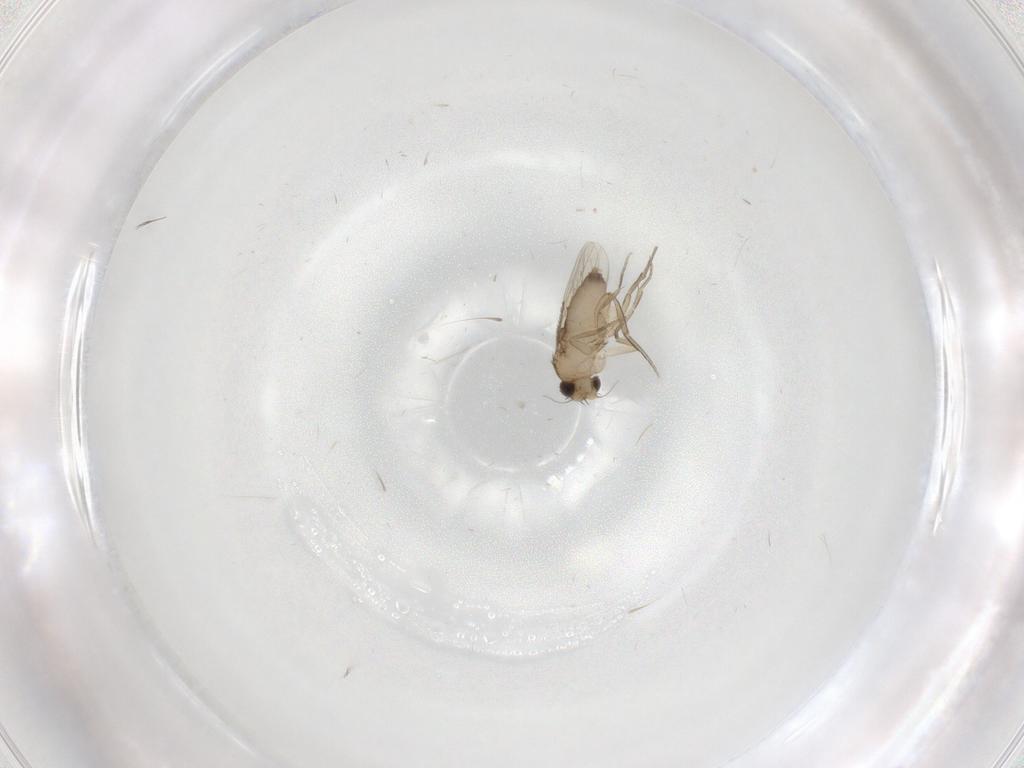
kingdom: Animalia
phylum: Arthropoda
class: Insecta
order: Diptera
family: Phoridae
